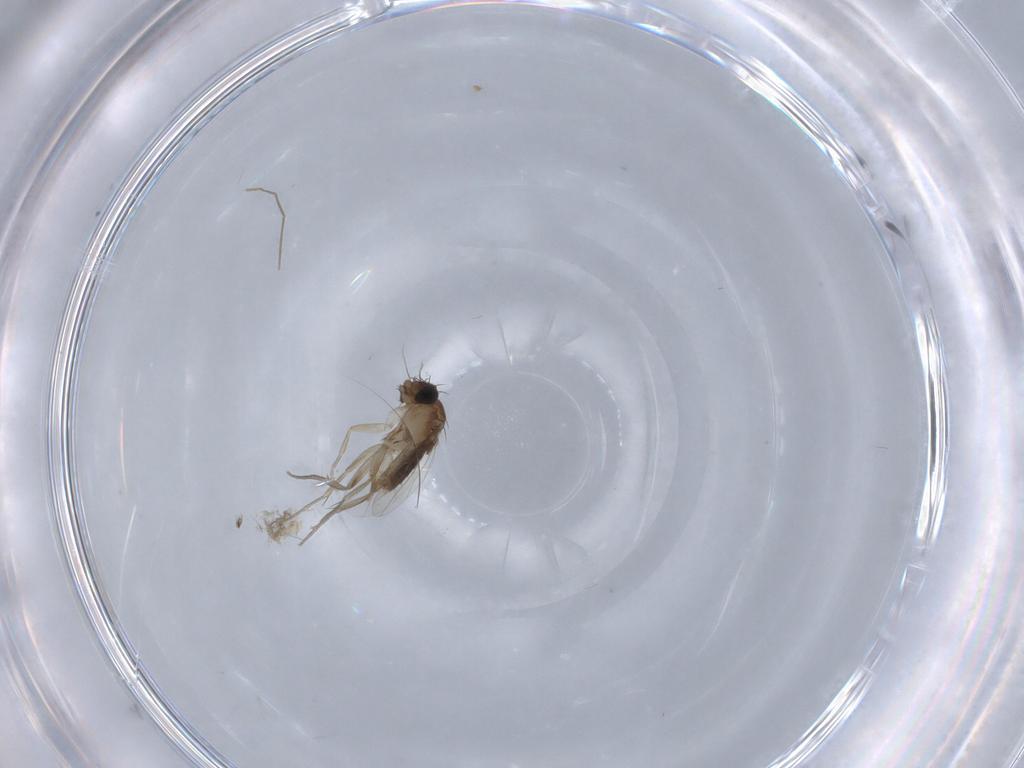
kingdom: Animalia
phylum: Arthropoda
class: Insecta
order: Diptera
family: Phoridae
